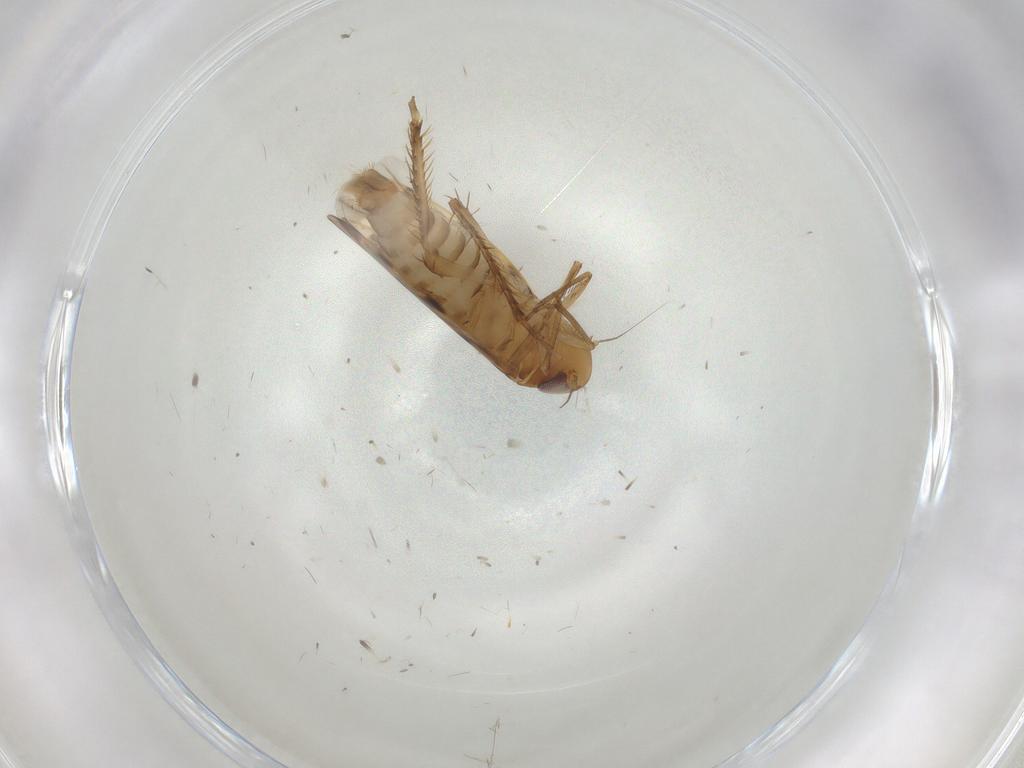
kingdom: Animalia
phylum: Arthropoda
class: Insecta
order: Hemiptera
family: Cicadellidae
